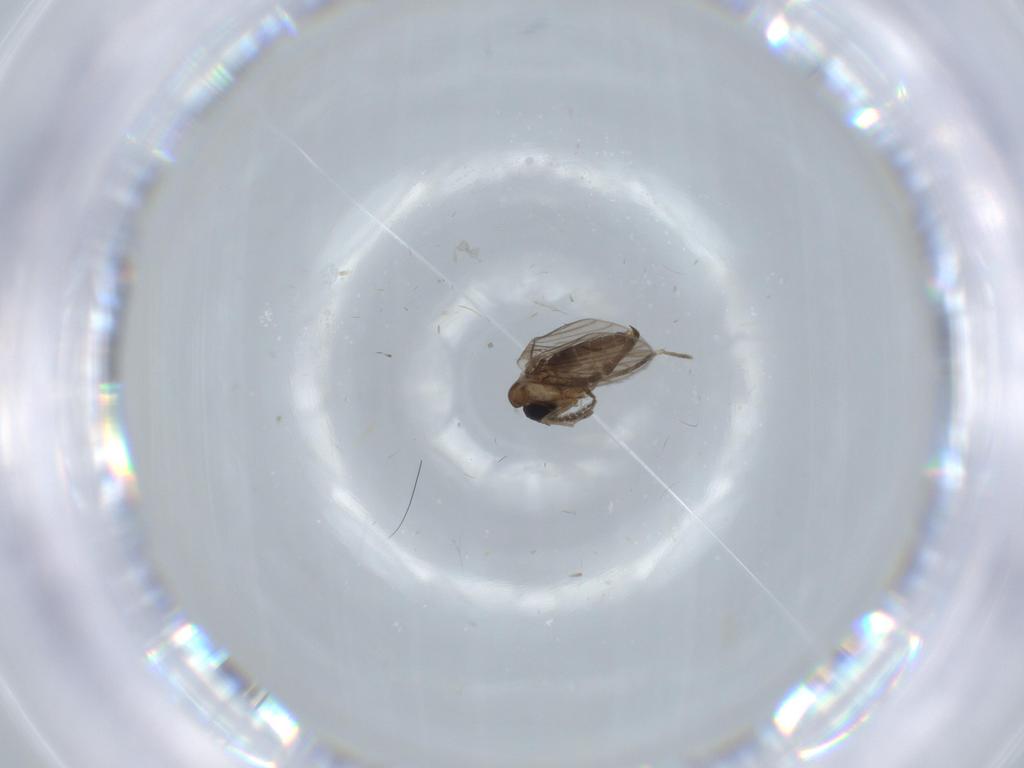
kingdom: Animalia
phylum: Arthropoda
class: Insecta
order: Diptera
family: Psychodidae
